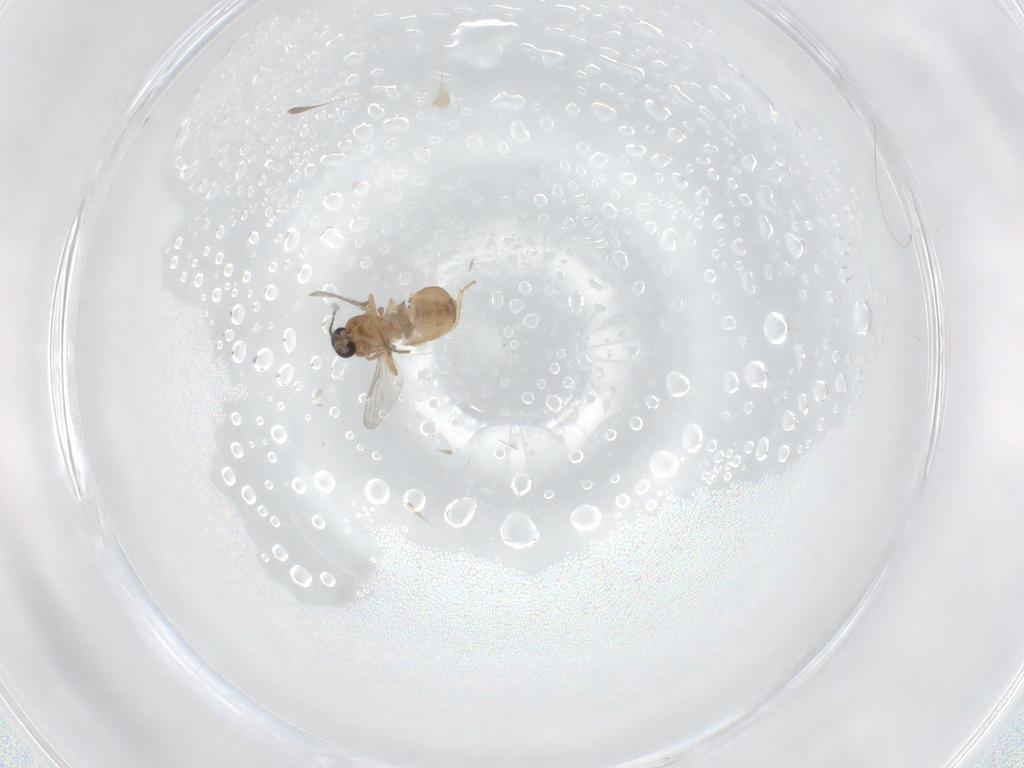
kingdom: Animalia
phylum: Arthropoda
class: Insecta
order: Diptera
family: Ceratopogonidae
